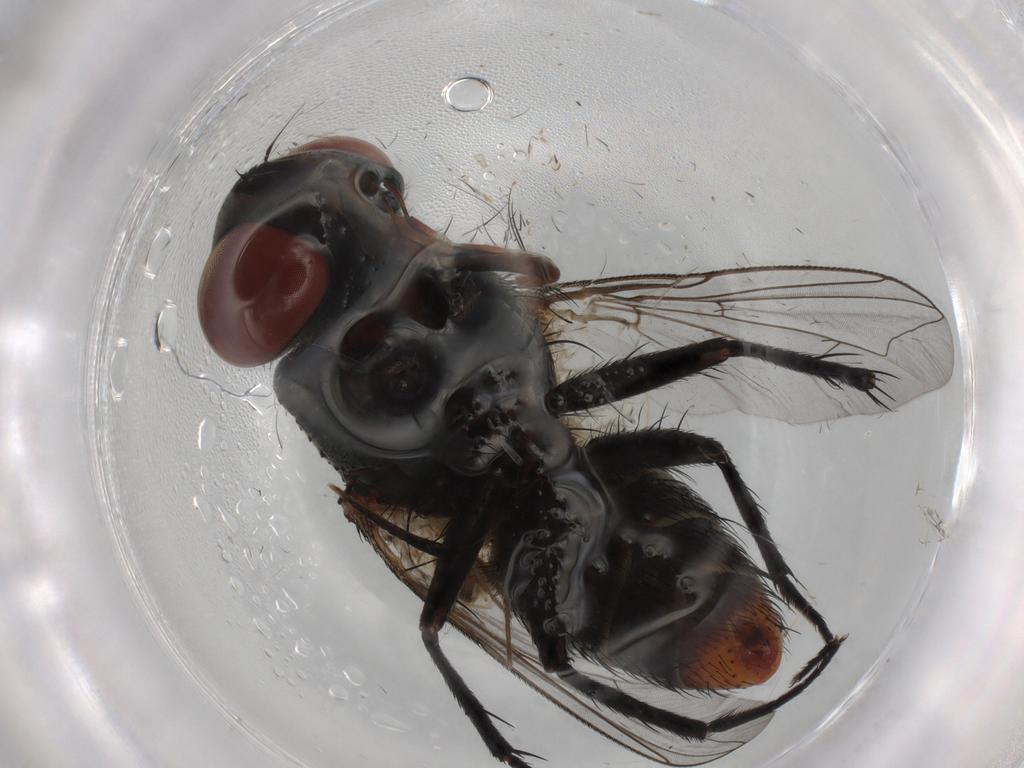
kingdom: Animalia
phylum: Arthropoda
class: Insecta
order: Diptera
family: Sarcophagidae
